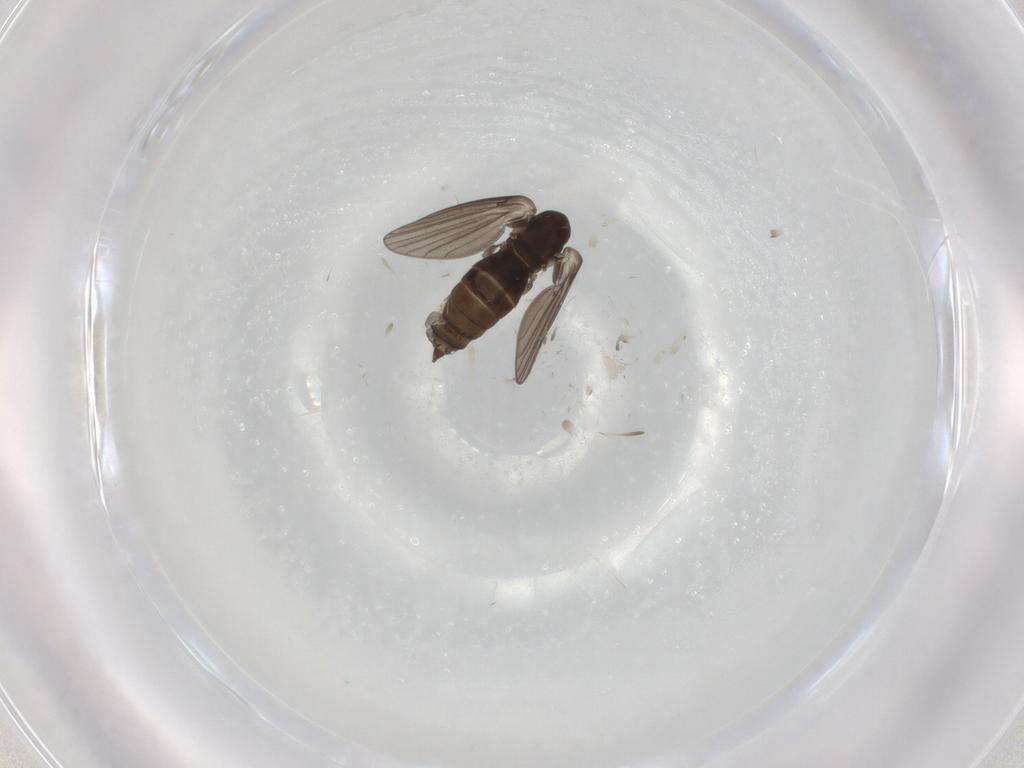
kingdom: Animalia
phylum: Arthropoda
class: Insecta
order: Diptera
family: Psychodidae
